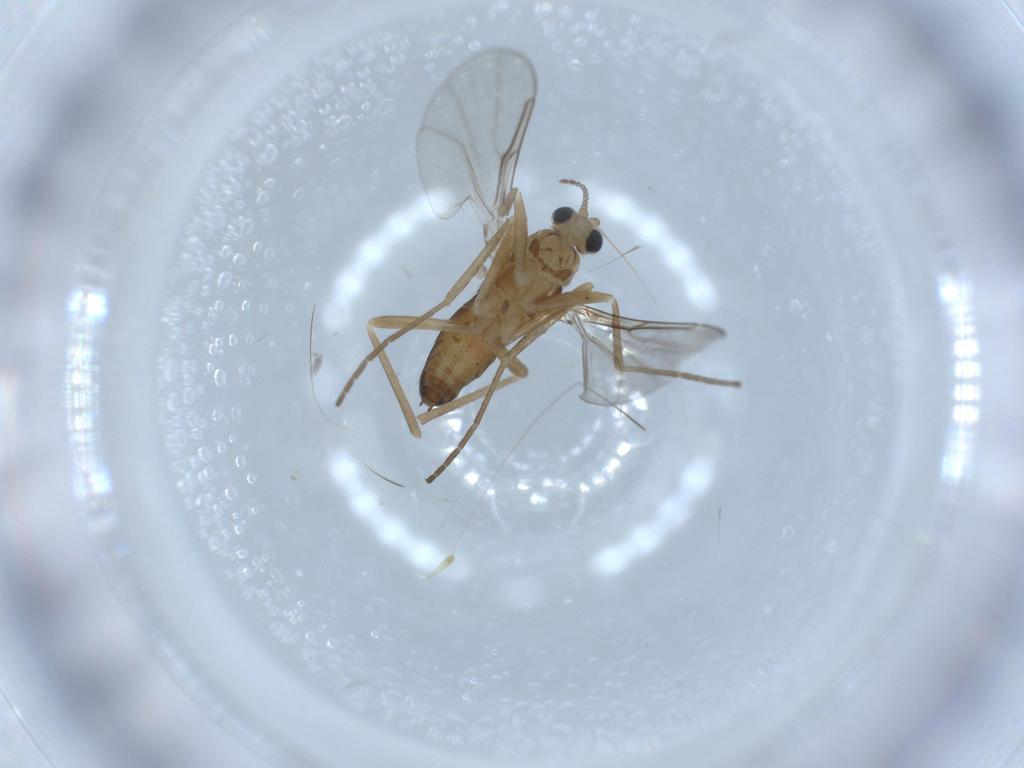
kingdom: Animalia
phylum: Arthropoda
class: Insecta
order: Diptera
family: Cecidomyiidae
